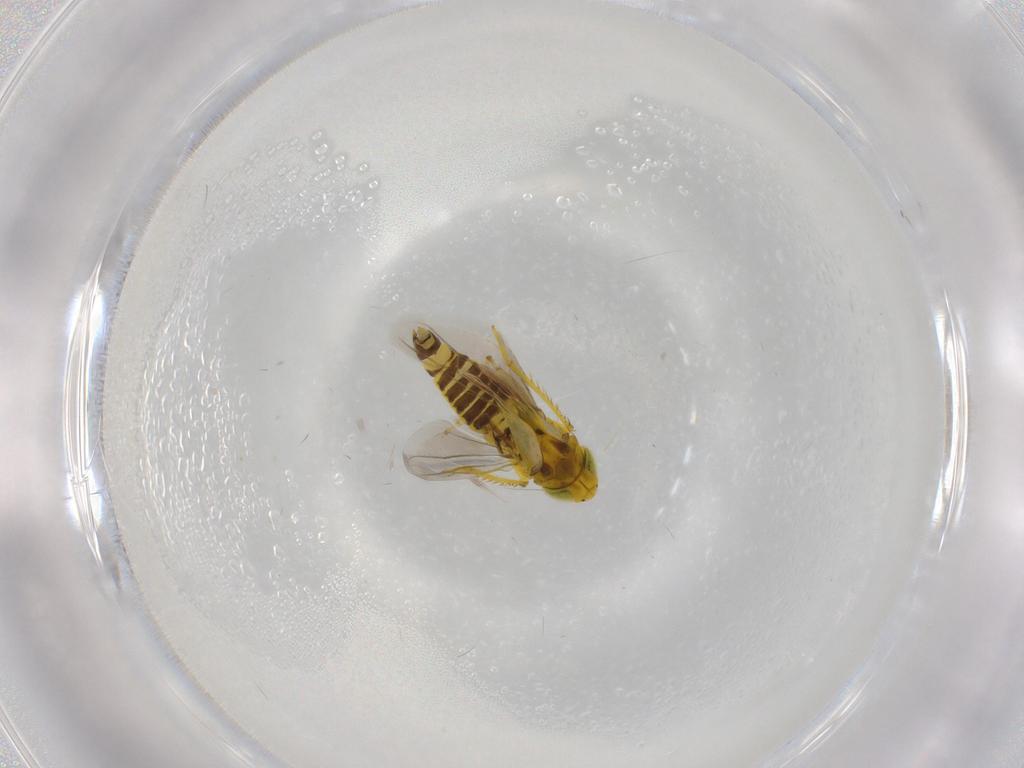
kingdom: Animalia
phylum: Arthropoda
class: Insecta
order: Hemiptera
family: Cicadellidae
